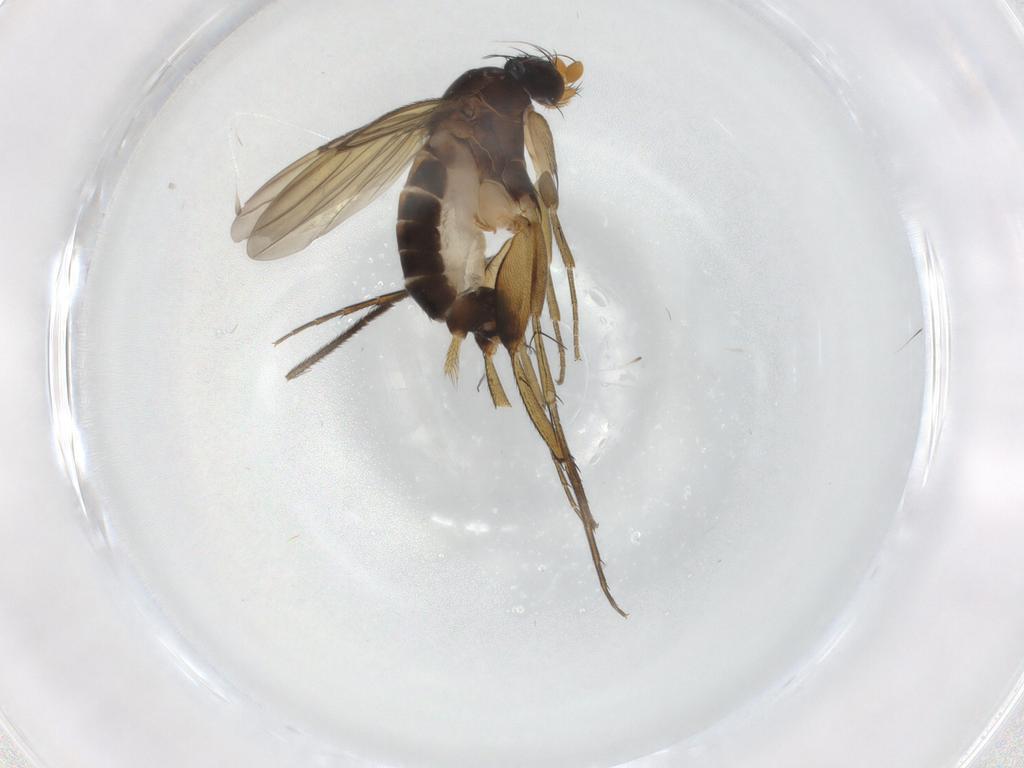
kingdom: Animalia
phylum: Arthropoda
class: Insecta
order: Diptera
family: Phoridae
